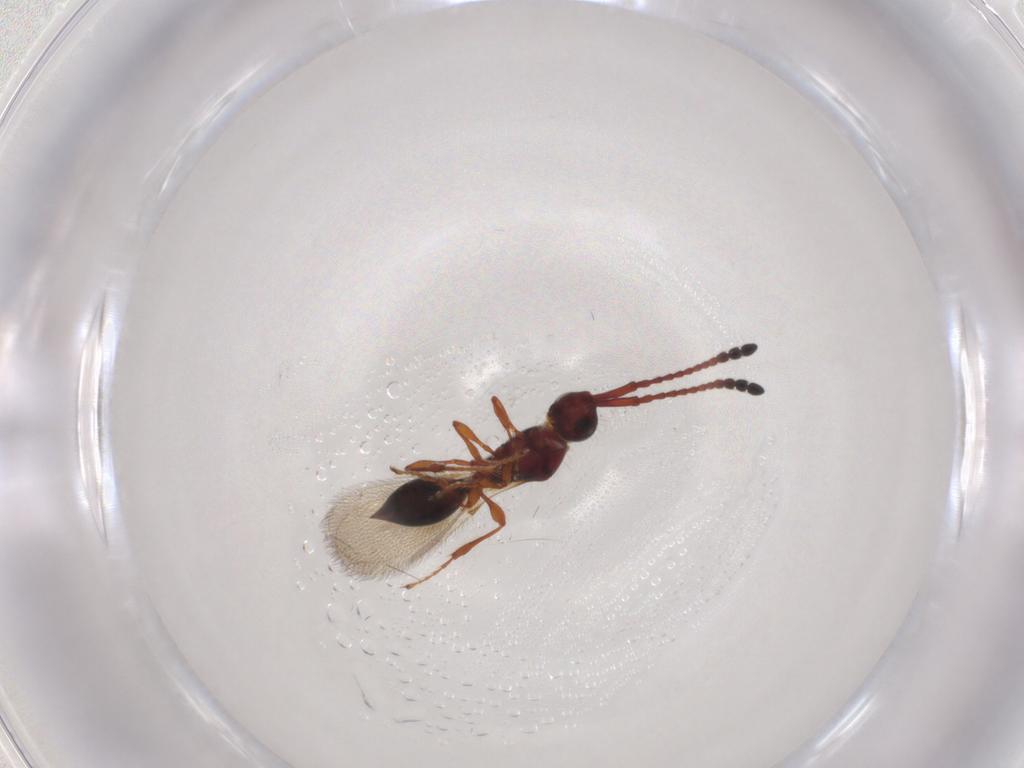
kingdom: Animalia
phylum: Arthropoda
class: Insecta
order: Hymenoptera
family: Diapriidae
